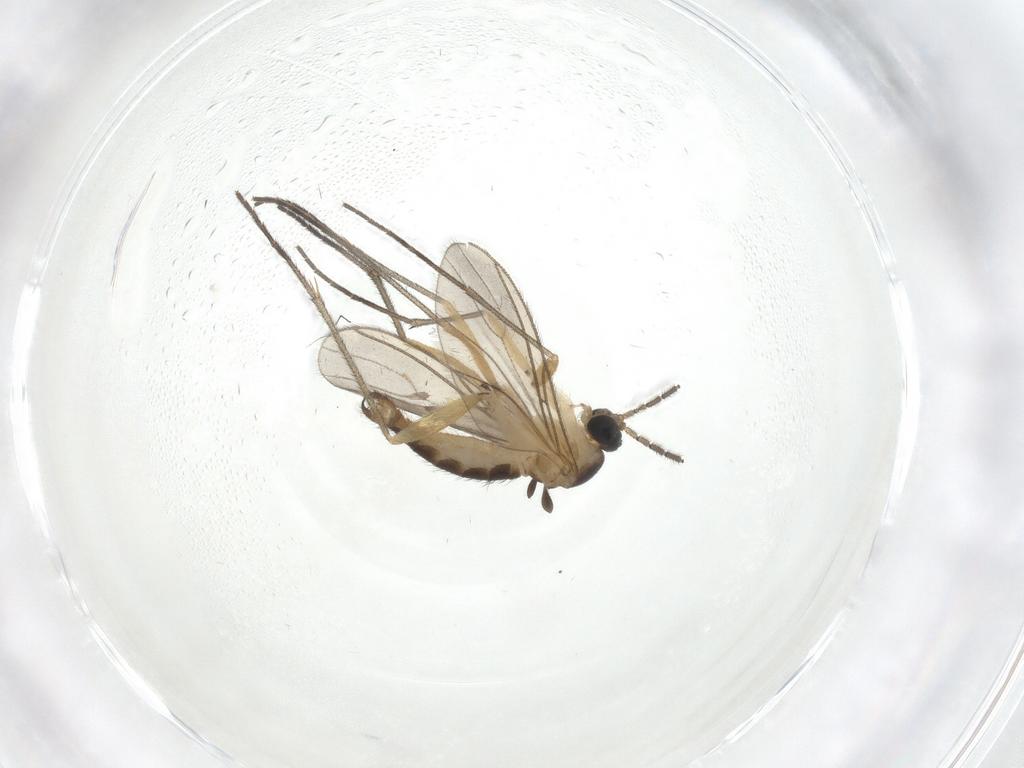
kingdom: Animalia
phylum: Arthropoda
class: Insecta
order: Diptera
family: Sciaridae
